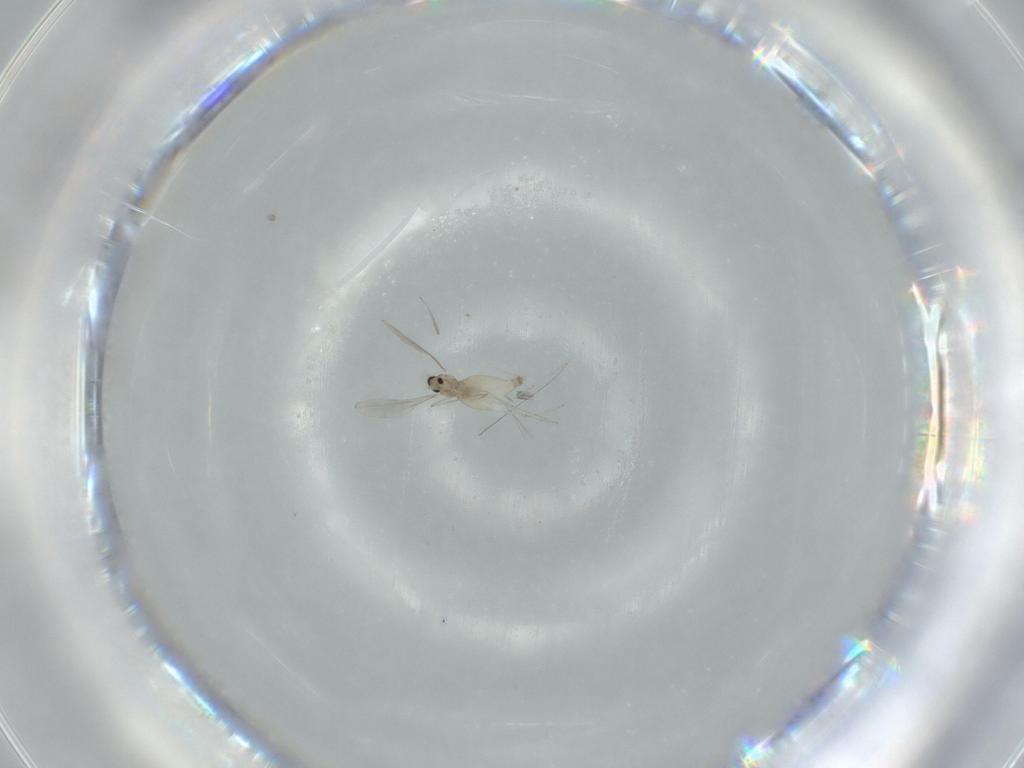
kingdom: Animalia
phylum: Arthropoda
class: Insecta
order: Diptera
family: Cecidomyiidae
